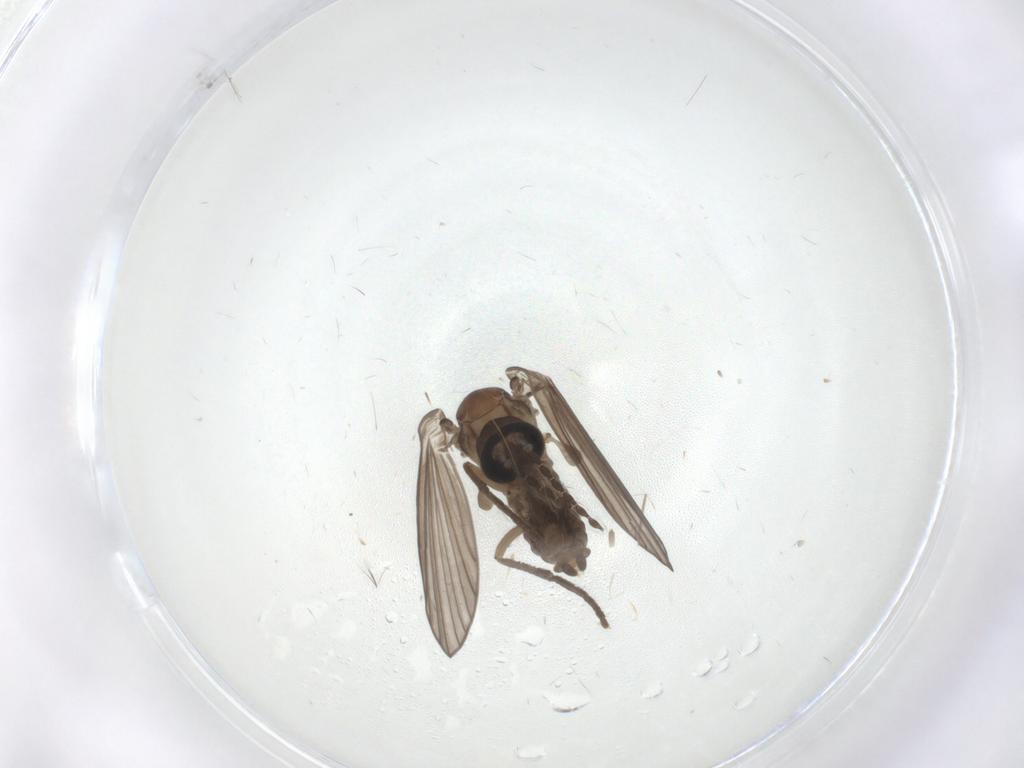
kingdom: Animalia
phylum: Arthropoda
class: Insecta
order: Diptera
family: Psychodidae
